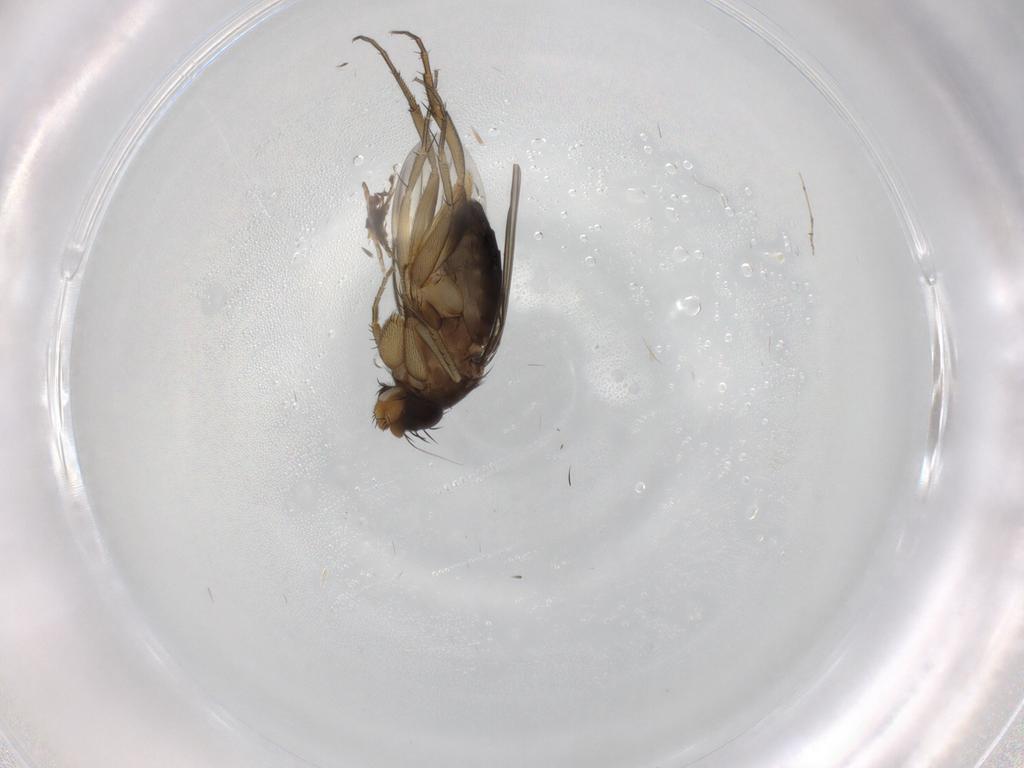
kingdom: Animalia
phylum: Arthropoda
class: Insecta
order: Diptera
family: Phoridae
